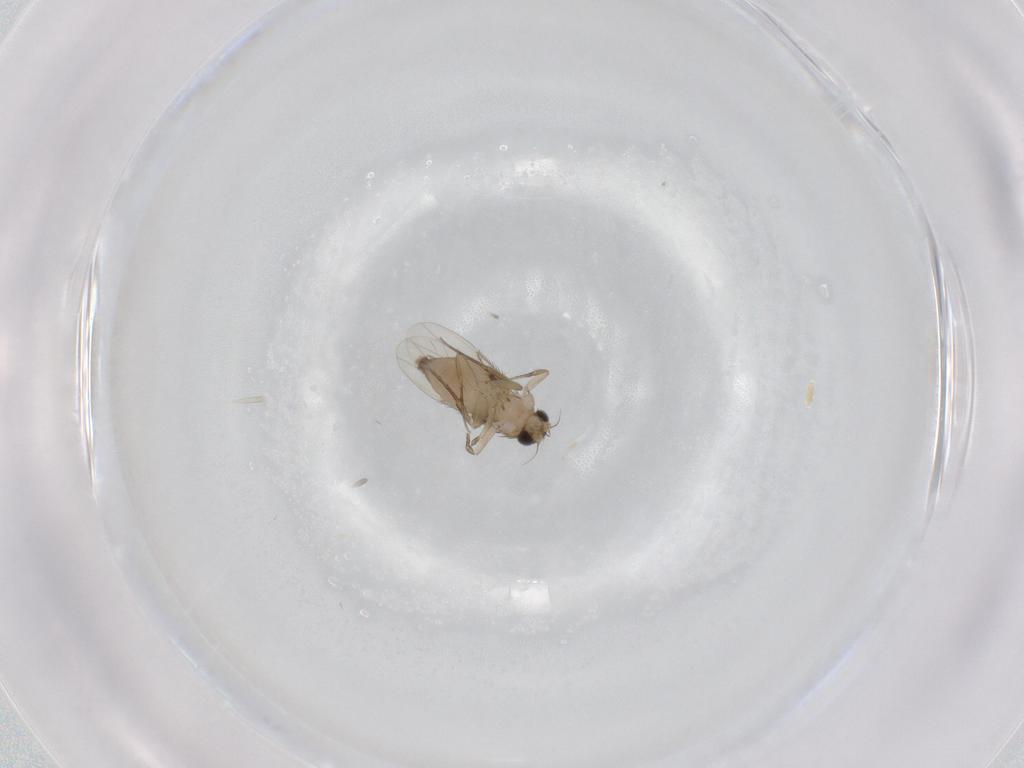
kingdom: Animalia
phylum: Arthropoda
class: Insecta
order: Diptera
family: Phoridae
